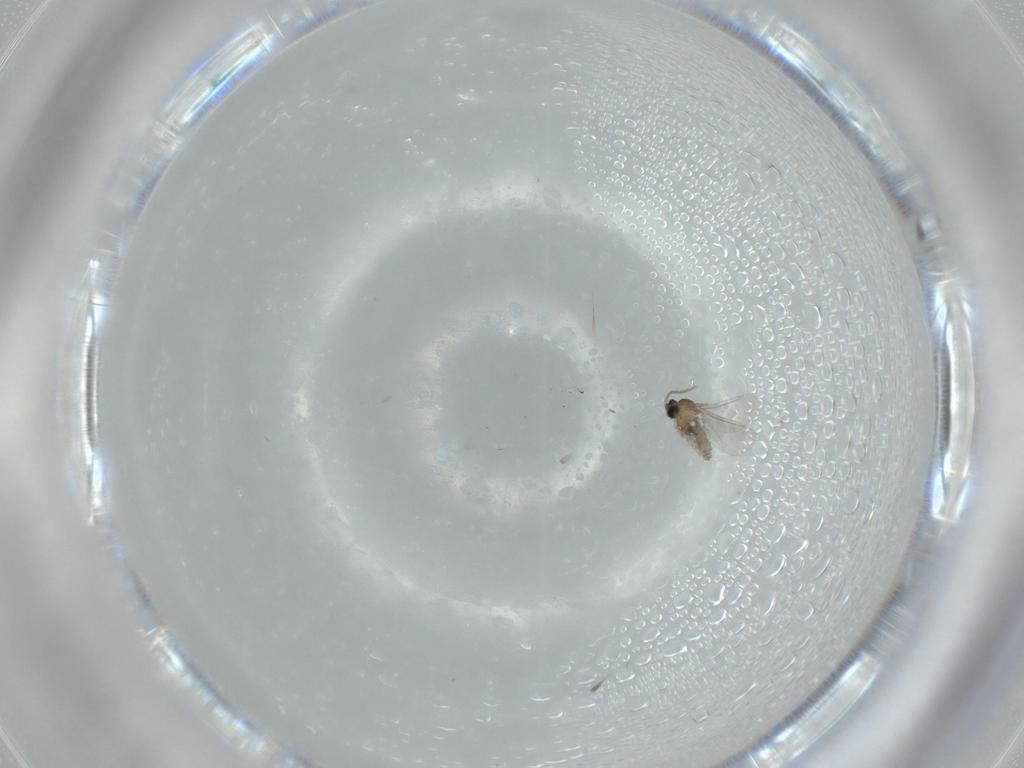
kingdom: Animalia
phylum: Arthropoda
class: Insecta
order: Diptera
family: Cecidomyiidae
